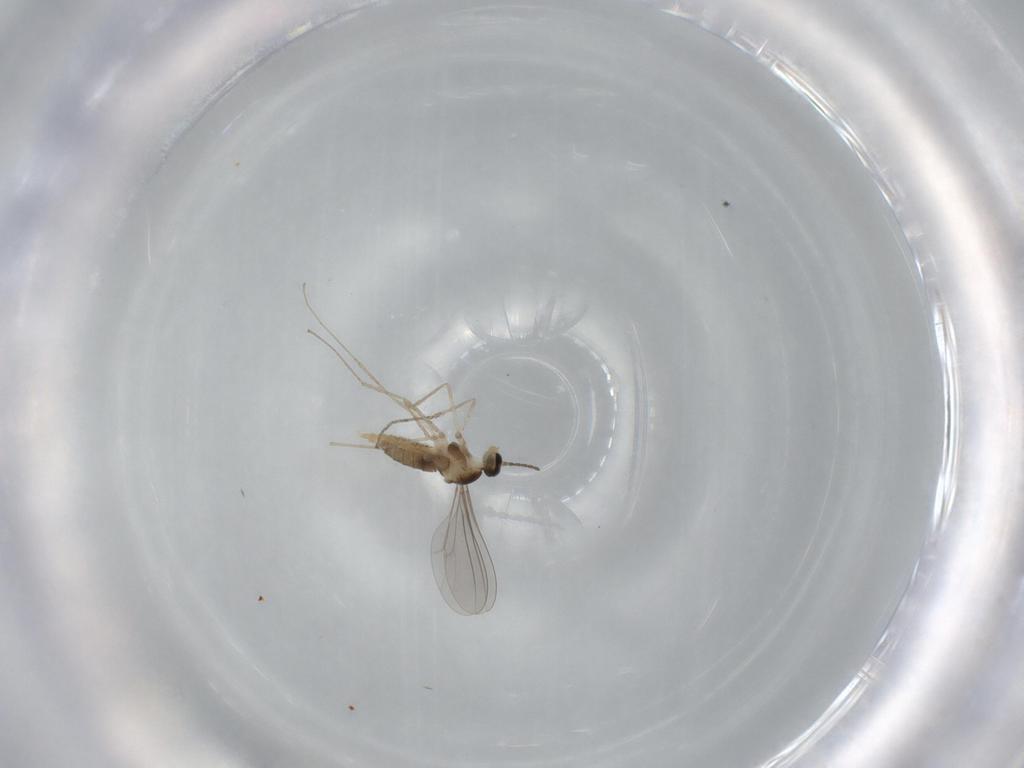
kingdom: Animalia
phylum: Arthropoda
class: Insecta
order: Diptera
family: Cecidomyiidae
